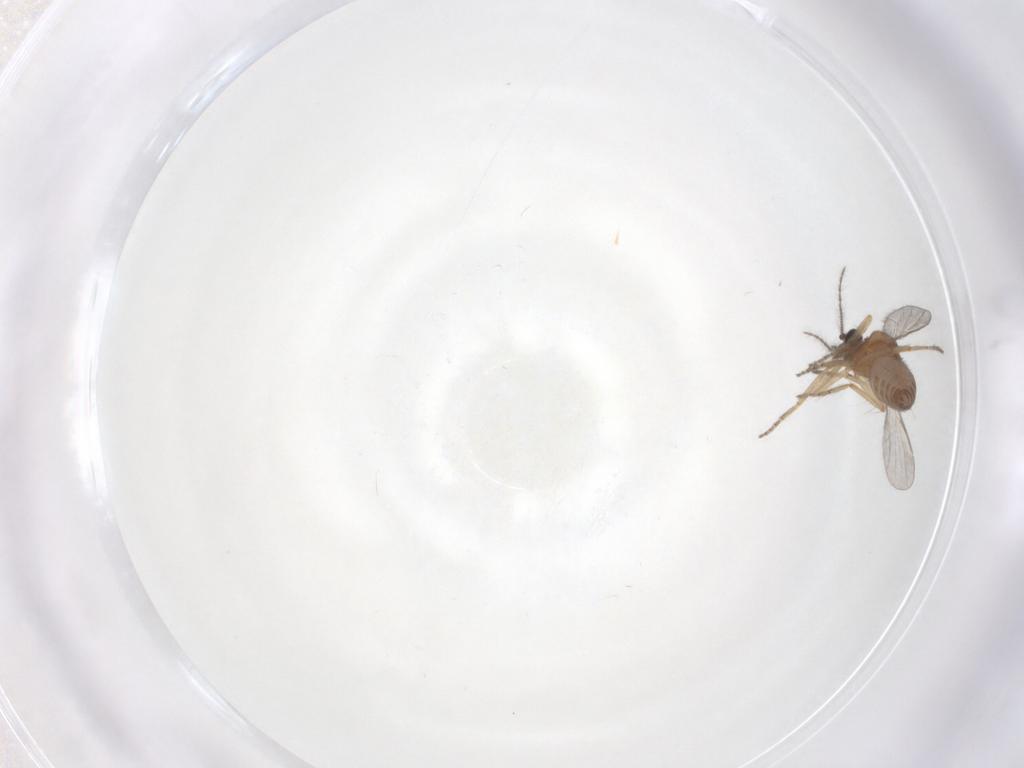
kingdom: Animalia
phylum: Arthropoda
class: Insecta
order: Diptera
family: Ceratopogonidae
